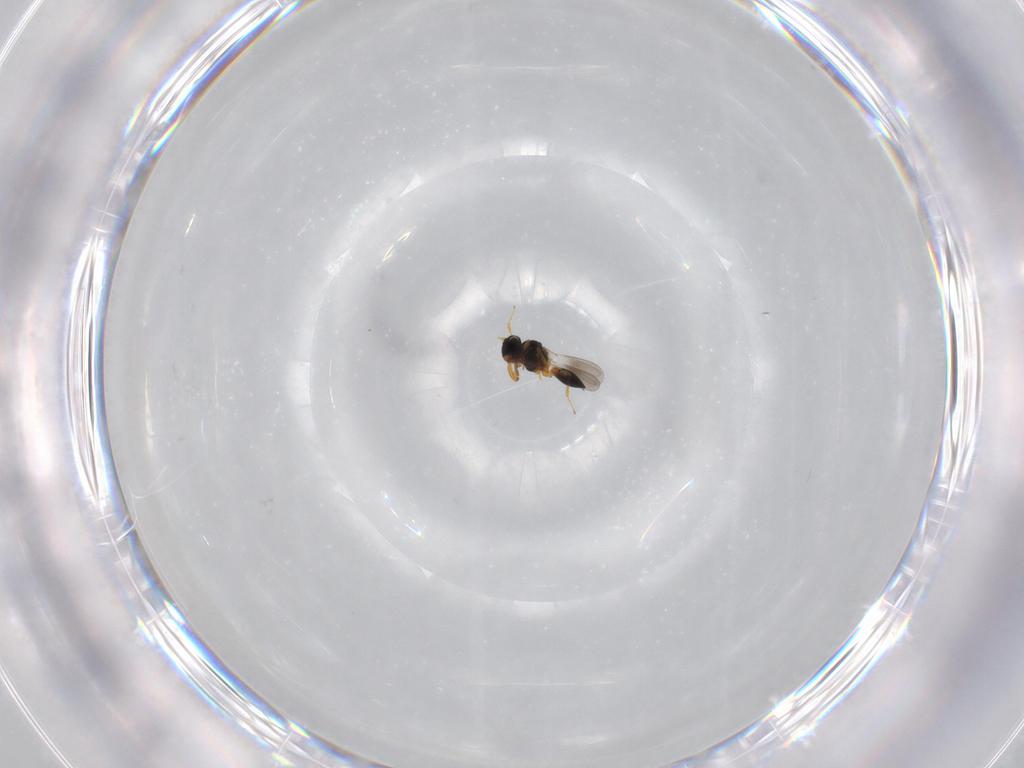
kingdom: Animalia
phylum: Arthropoda
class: Insecta
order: Hymenoptera
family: Platygastridae
